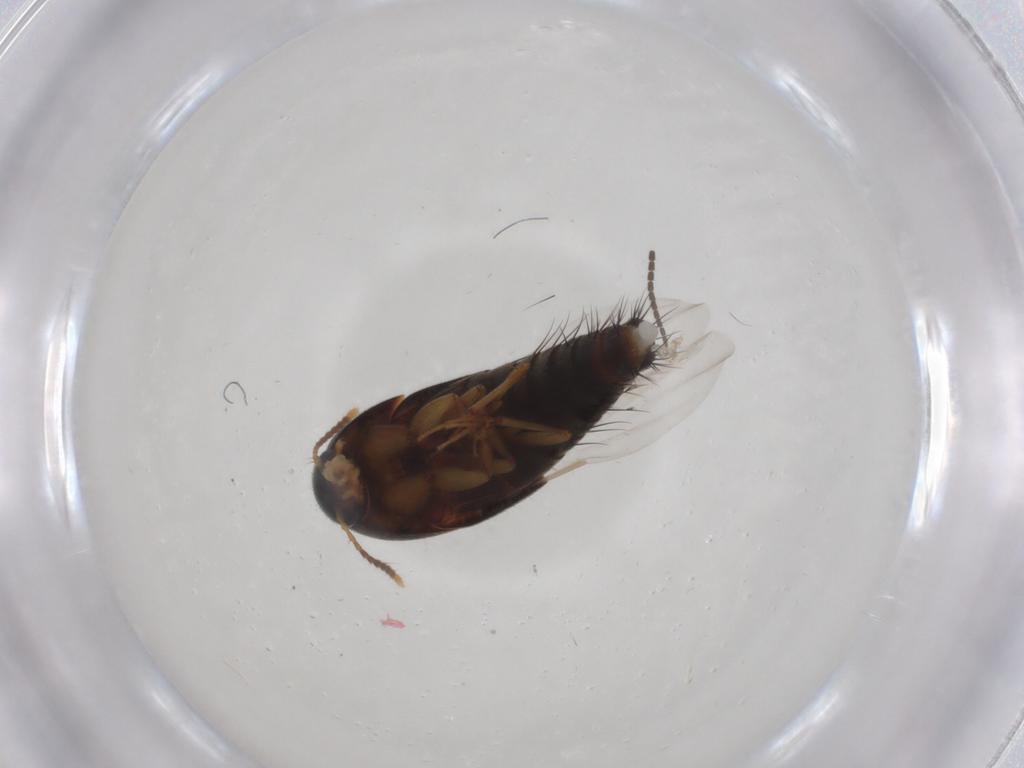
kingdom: Animalia
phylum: Arthropoda
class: Insecta
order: Coleoptera
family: Staphylinidae
